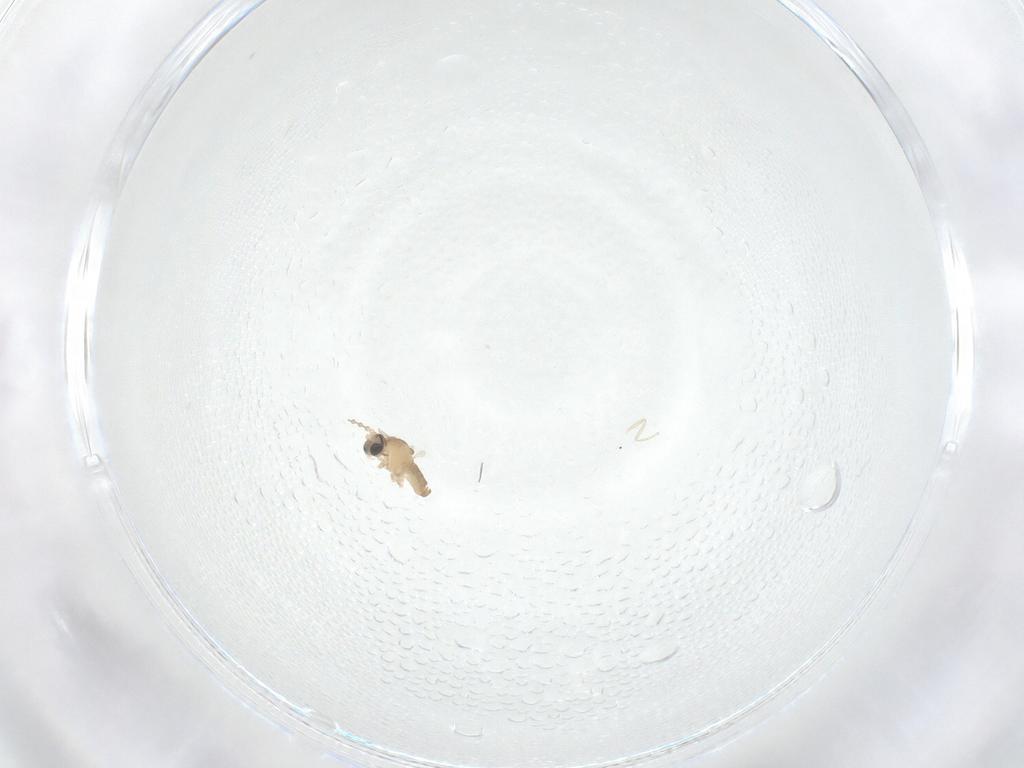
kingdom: Animalia
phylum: Arthropoda
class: Insecta
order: Diptera
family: Cecidomyiidae
